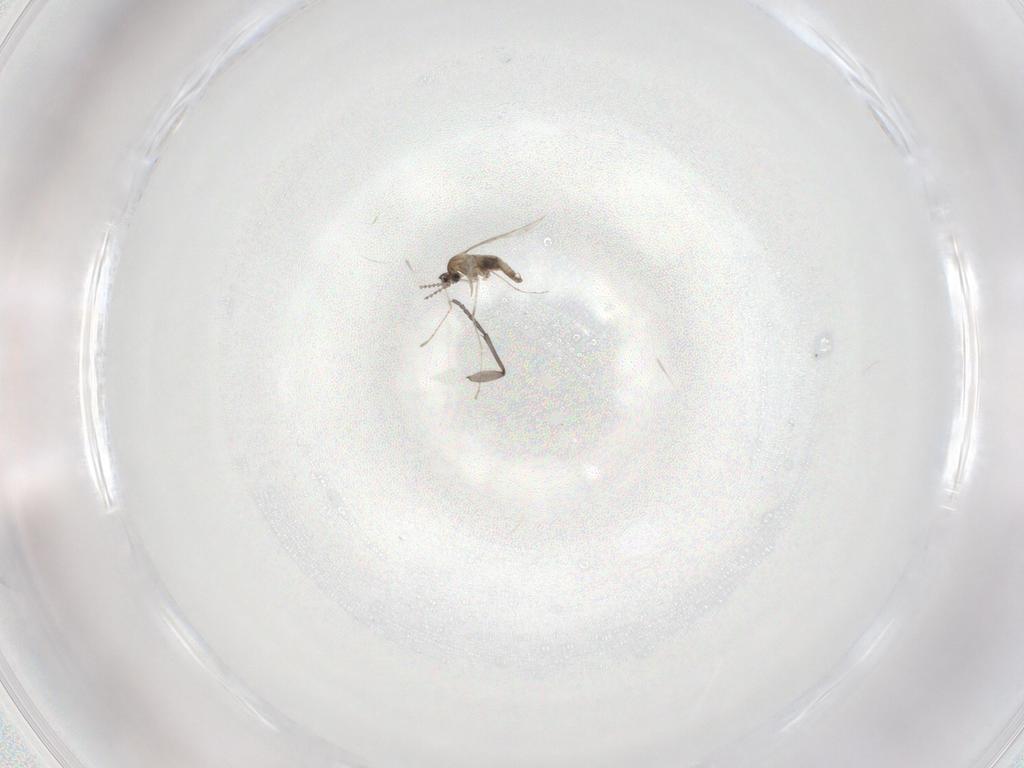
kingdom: Animalia
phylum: Arthropoda
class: Insecta
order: Diptera
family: Sciaridae
